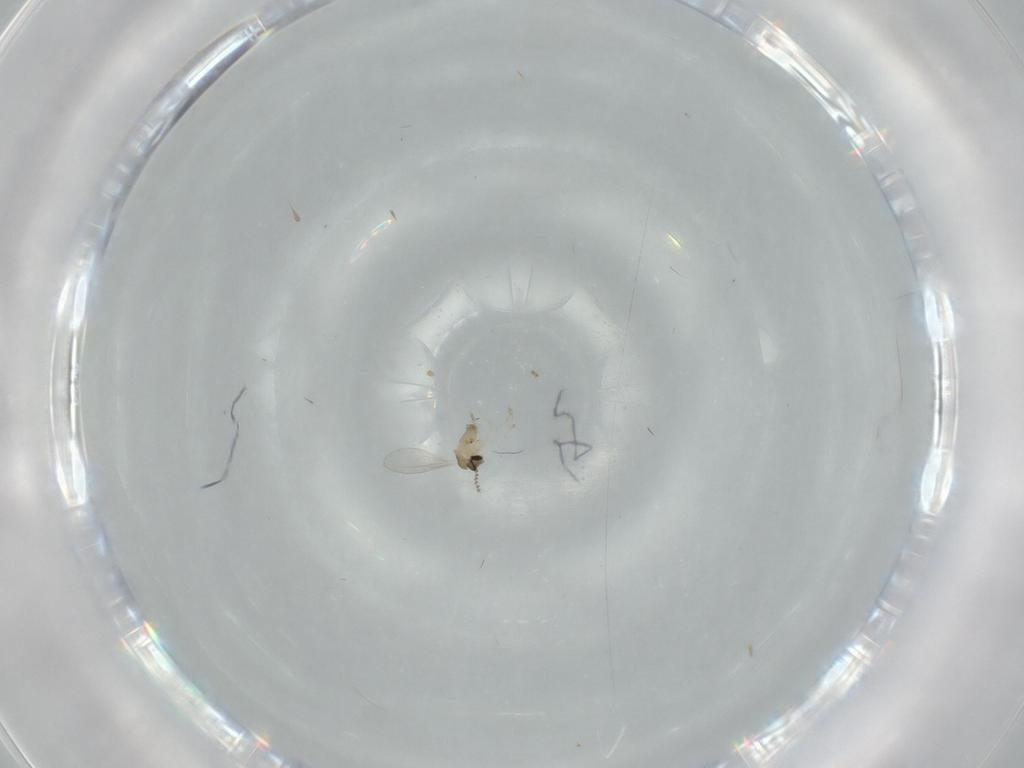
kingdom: Animalia
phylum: Arthropoda
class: Insecta
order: Diptera
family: Cecidomyiidae
